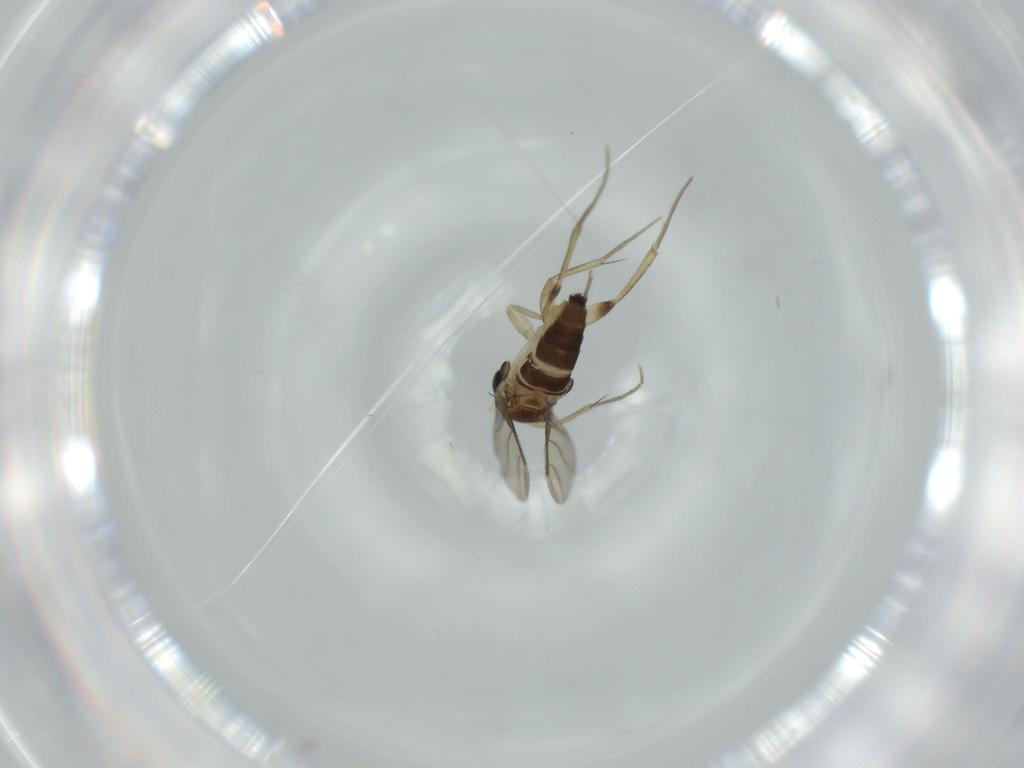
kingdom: Animalia
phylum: Arthropoda
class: Insecta
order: Diptera
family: Phoridae
